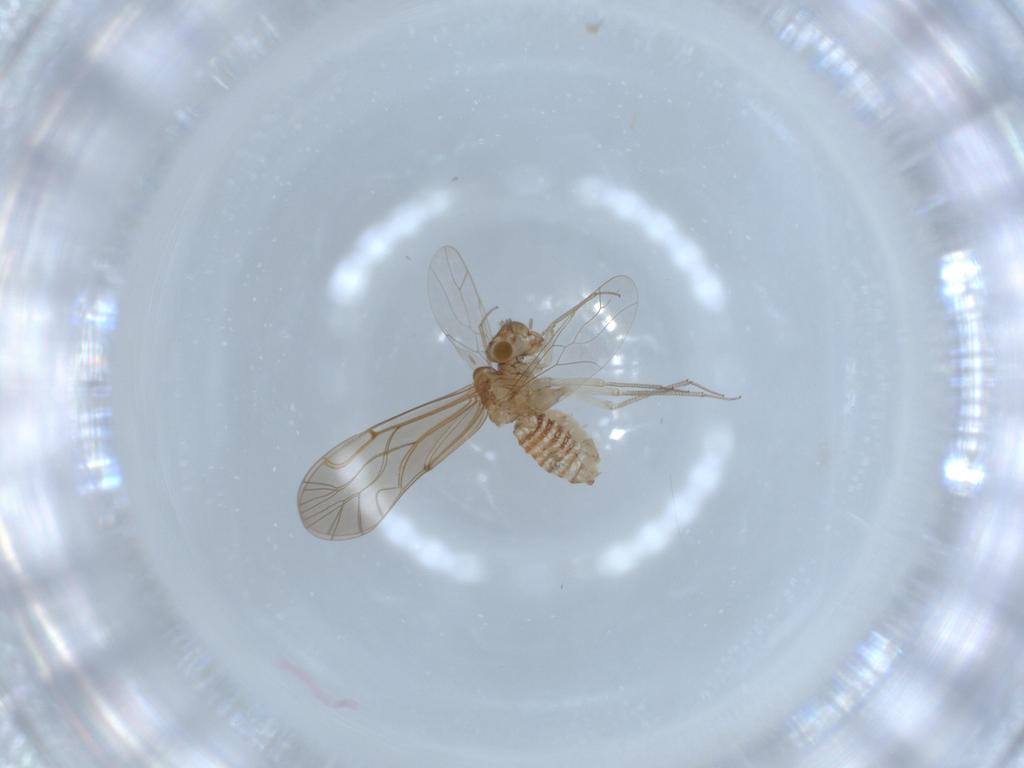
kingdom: Animalia
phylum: Arthropoda
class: Insecta
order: Psocodea
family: Lachesillidae
